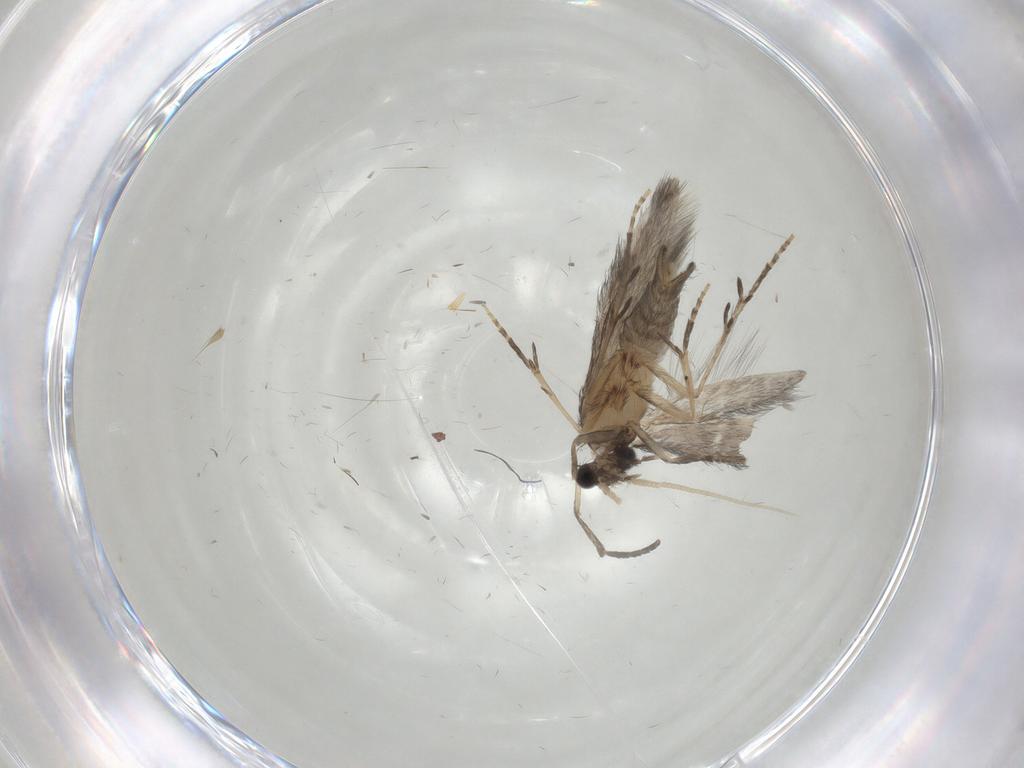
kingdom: Animalia
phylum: Arthropoda
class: Insecta
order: Trichoptera
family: Hydroptilidae
